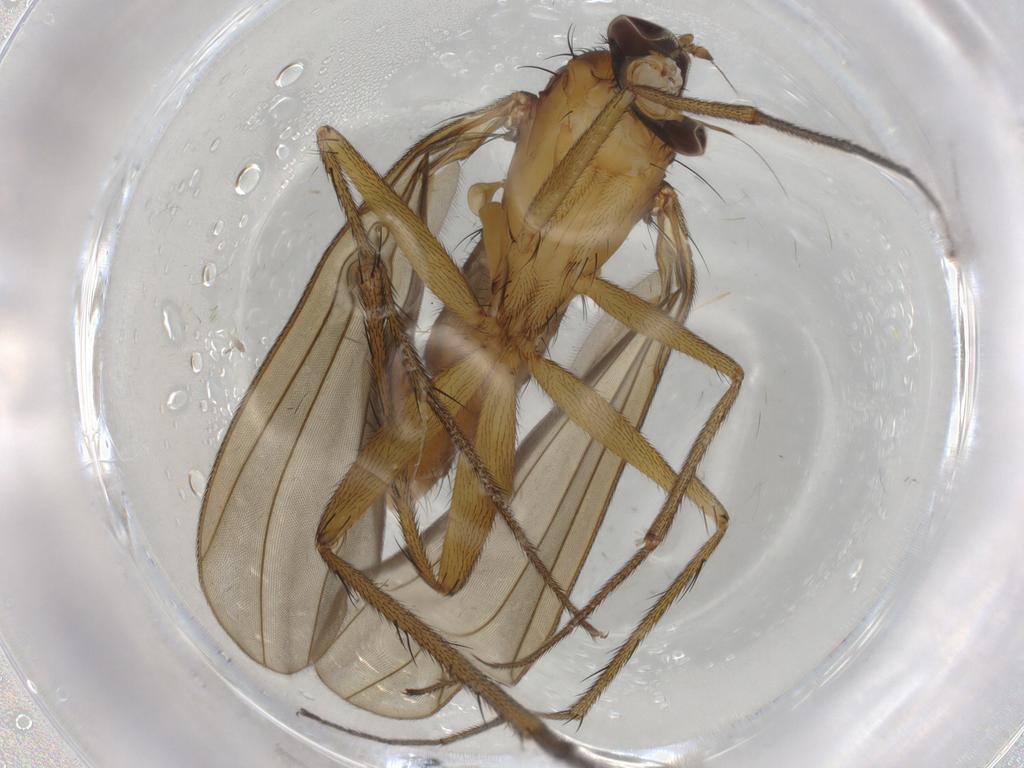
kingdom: Animalia
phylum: Arthropoda
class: Insecta
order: Diptera
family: Dolichopodidae
